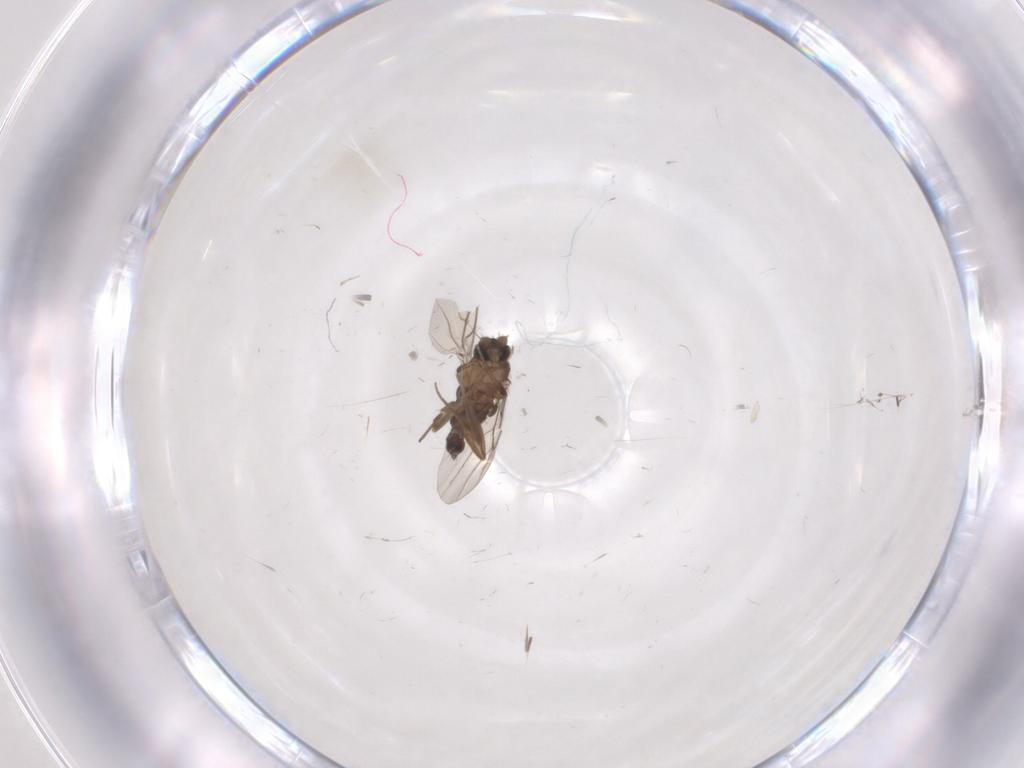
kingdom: Animalia
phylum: Arthropoda
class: Insecta
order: Diptera
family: Phoridae
